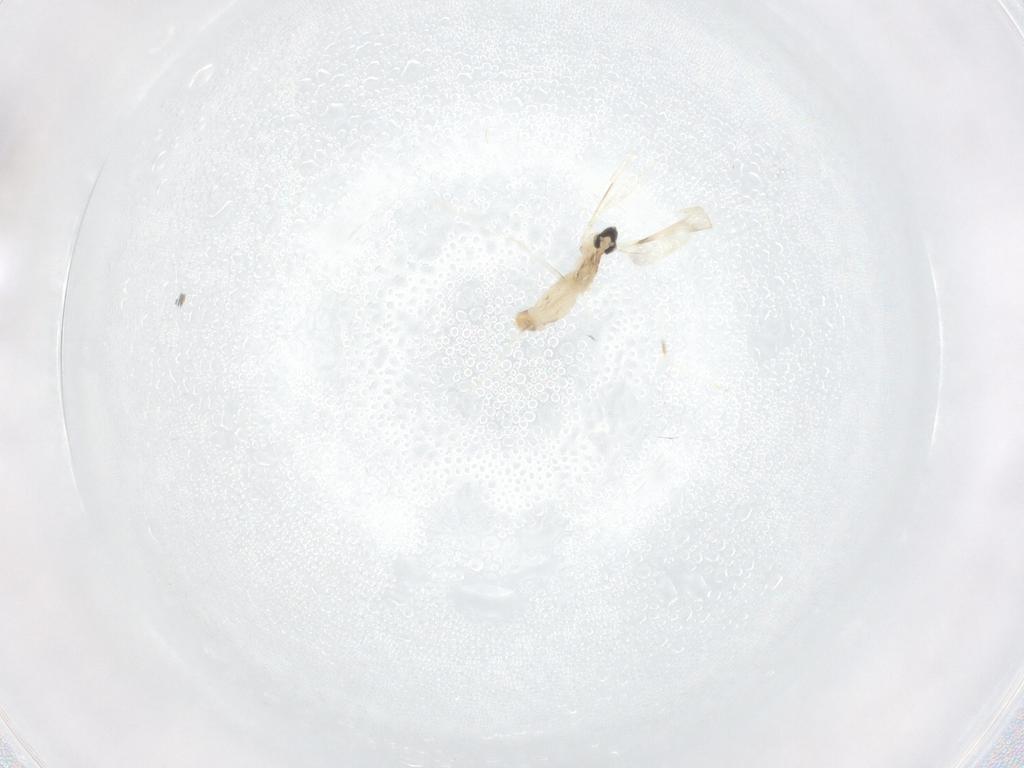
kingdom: Animalia
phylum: Arthropoda
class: Insecta
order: Diptera
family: Cecidomyiidae
